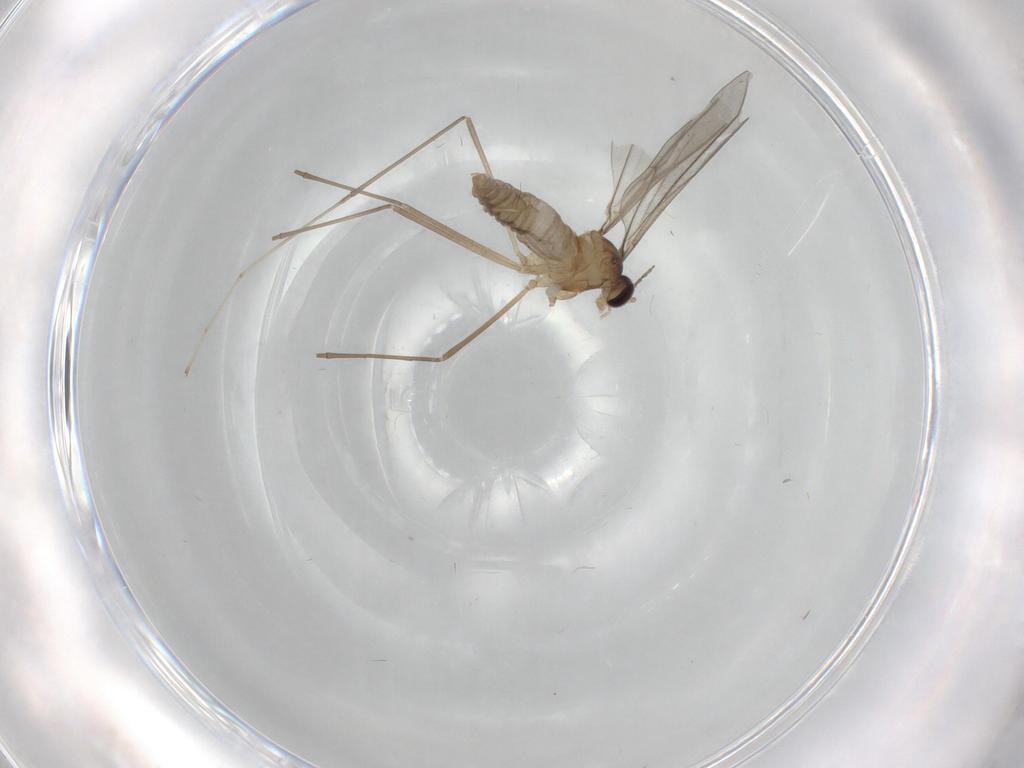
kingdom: Animalia
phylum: Arthropoda
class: Insecta
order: Diptera
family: Cecidomyiidae
